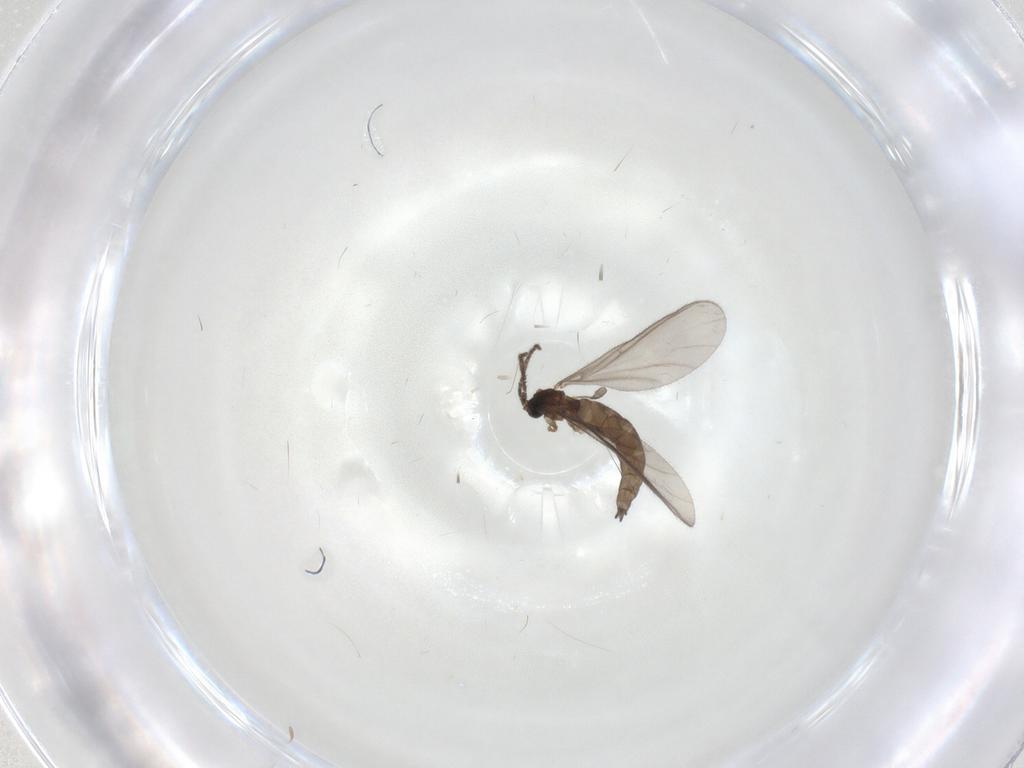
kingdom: Animalia
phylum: Arthropoda
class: Insecta
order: Diptera
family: Sciaridae
